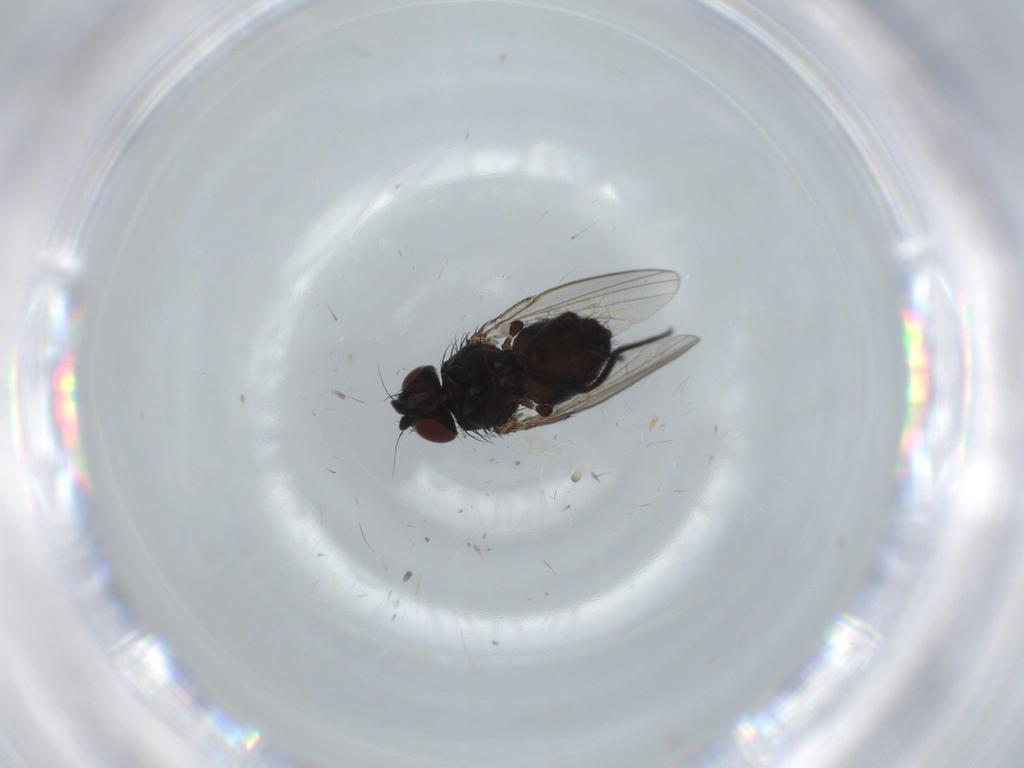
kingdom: Animalia
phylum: Arthropoda
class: Insecta
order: Diptera
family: Milichiidae
